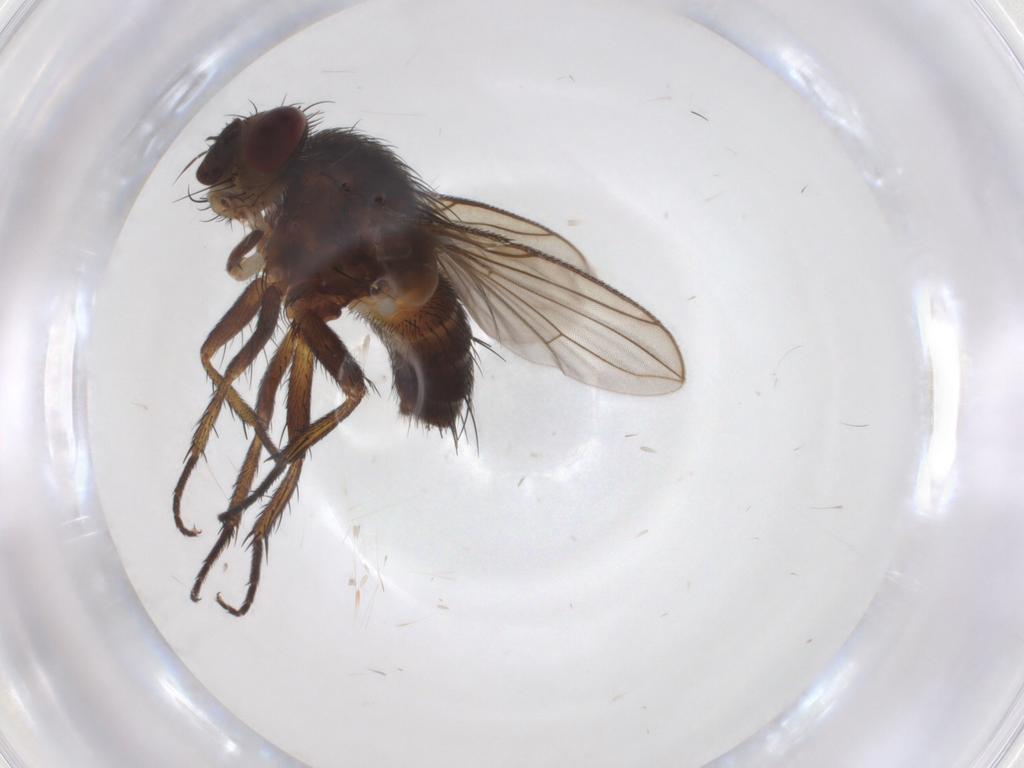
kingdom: Animalia
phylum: Arthropoda
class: Insecta
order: Diptera
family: Tachinidae
